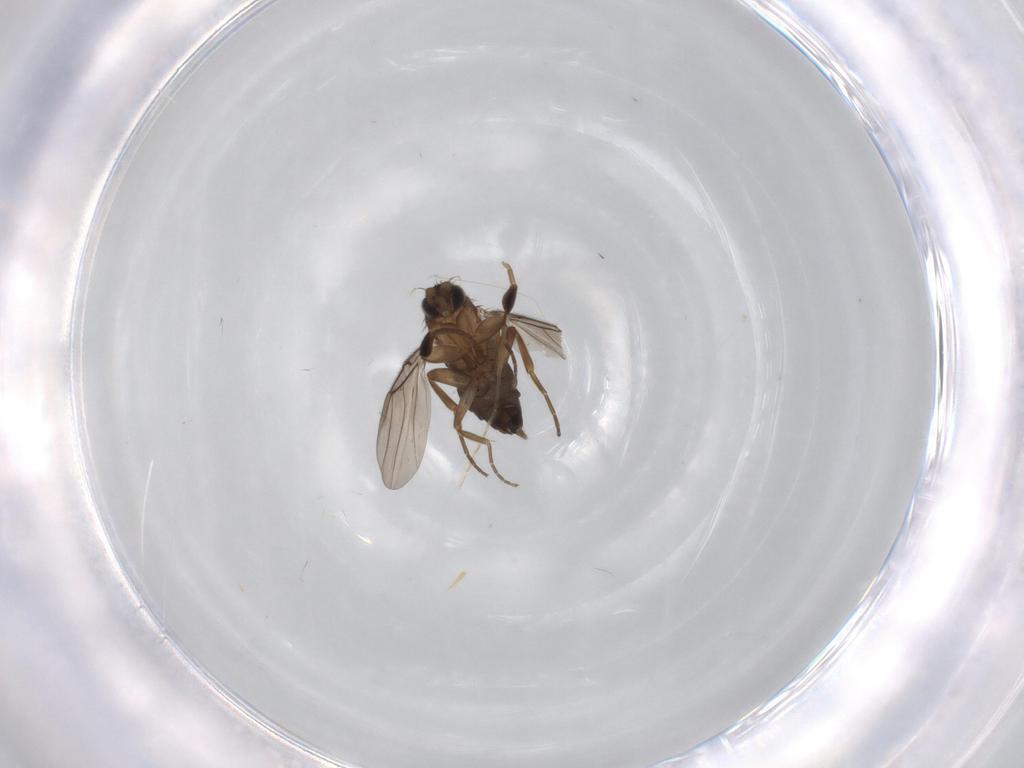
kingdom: Animalia
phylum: Arthropoda
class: Insecta
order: Diptera
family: Phoridae
